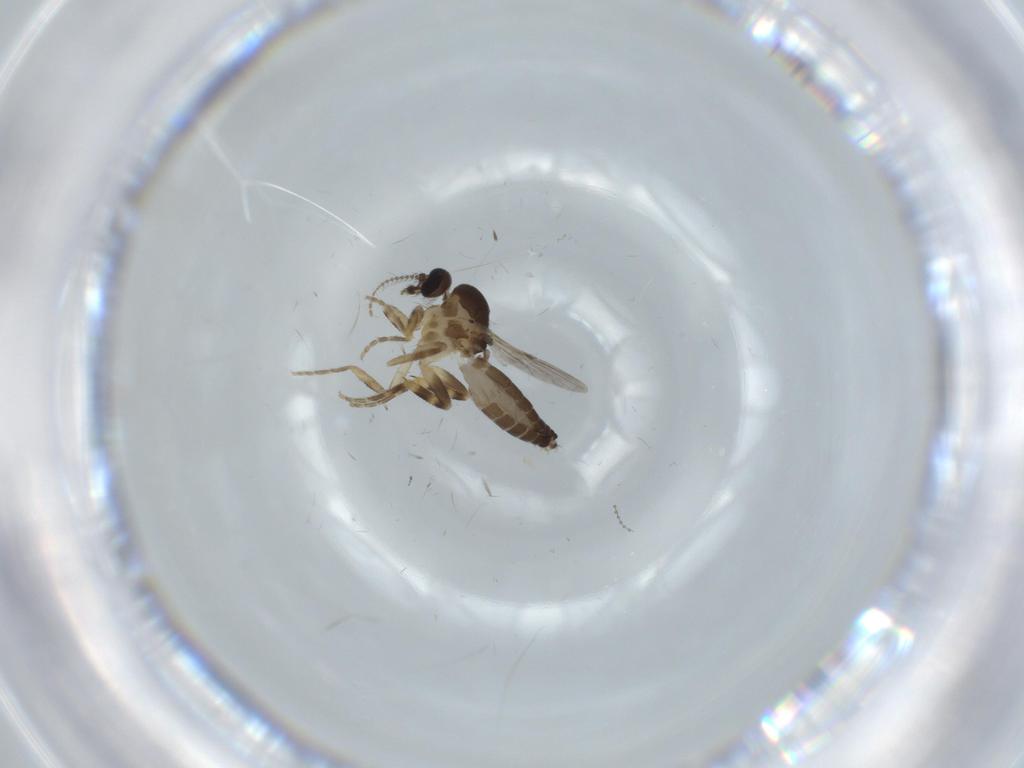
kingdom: Animalia
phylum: Arthropoda
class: Insecta
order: Diptera
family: Ceratopogonidae
